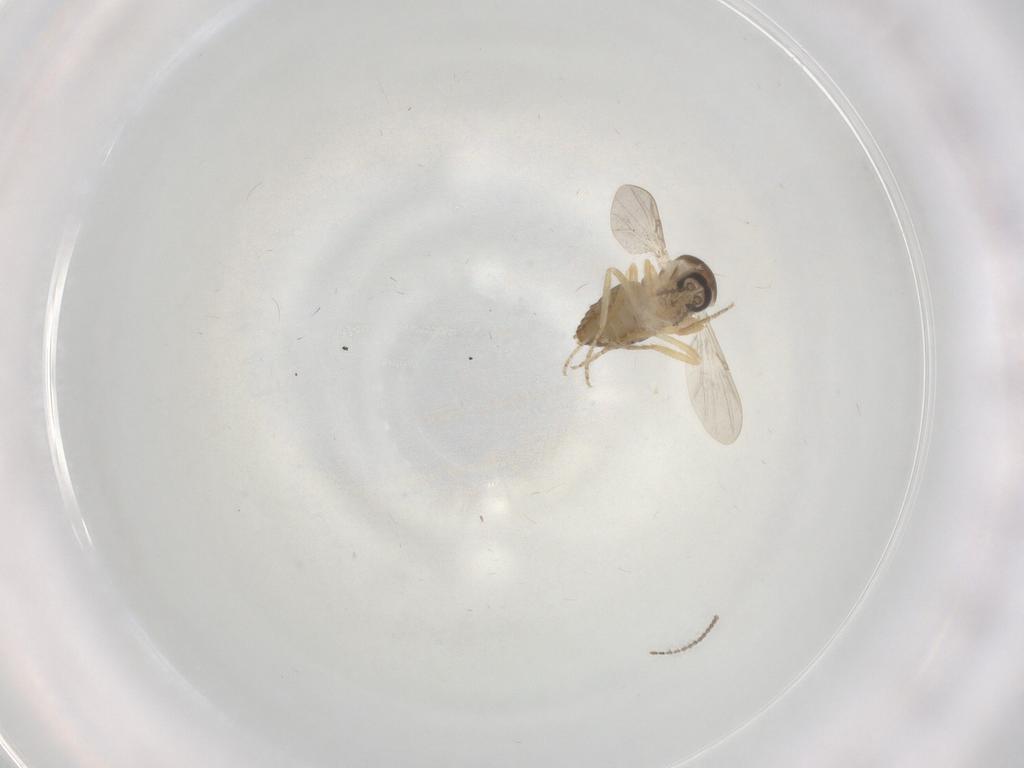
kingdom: Animalia
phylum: Arthropoda
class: Insecta
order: Diptera
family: Ceratopogonidae
